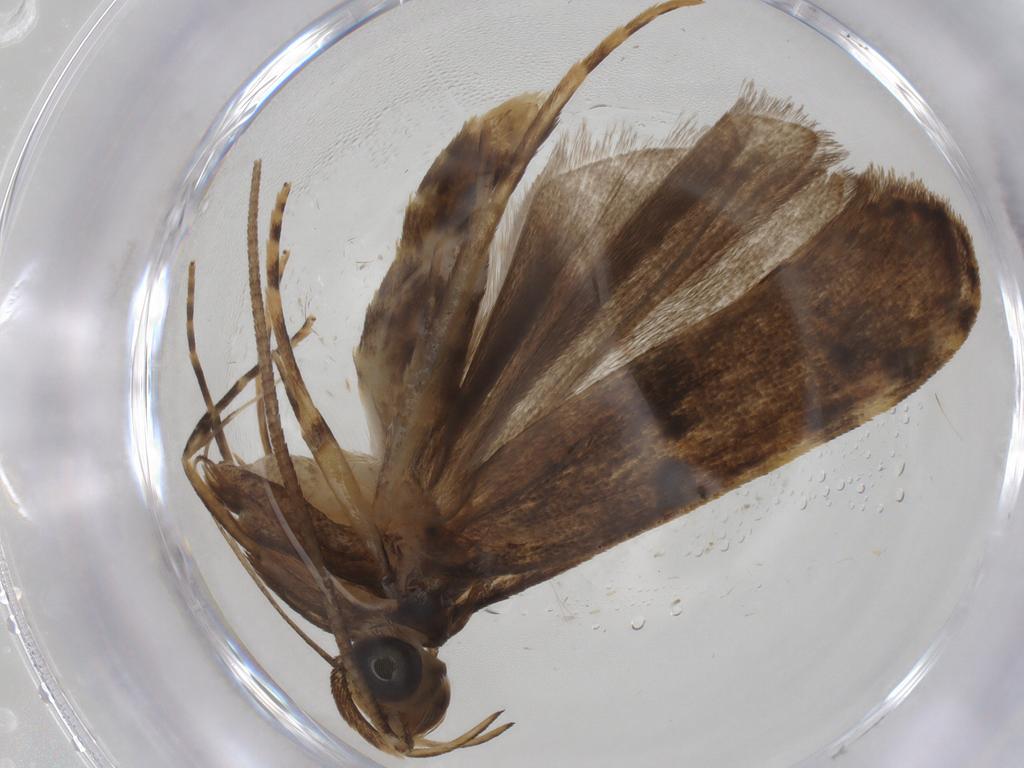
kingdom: Animalia
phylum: Arthropoda
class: Insecta
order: Lepidoptera
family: Autostichidae
